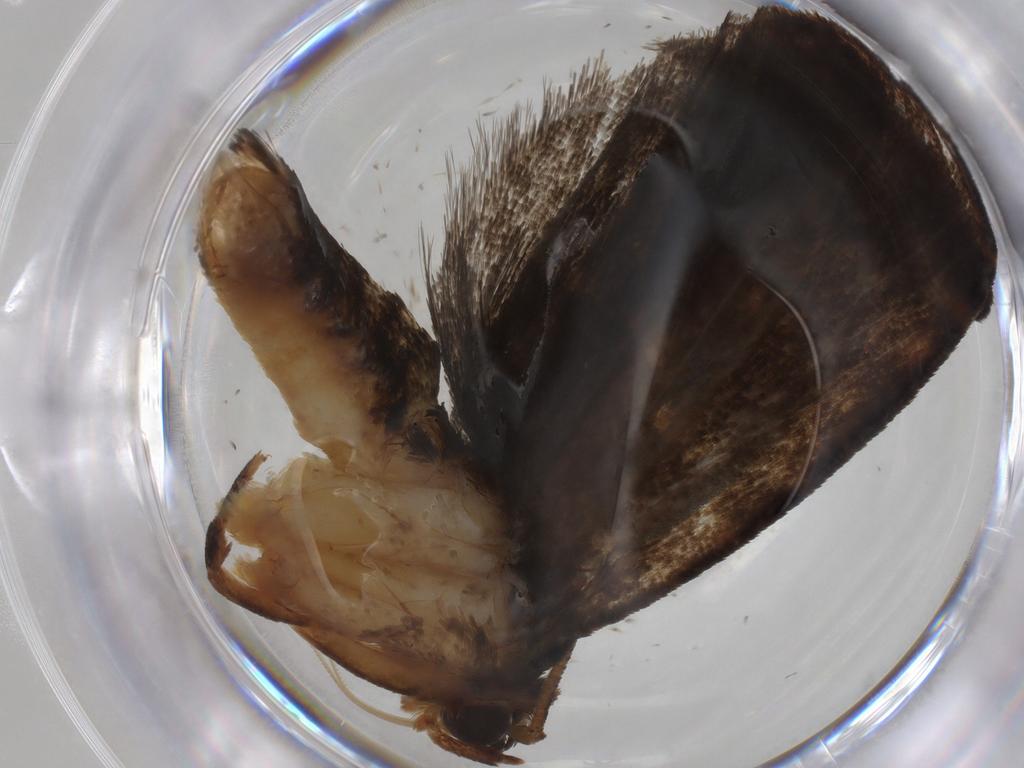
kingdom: Animalia
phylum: Arthropoda
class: Insecta
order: Lepidoptera
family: Tortricidae
